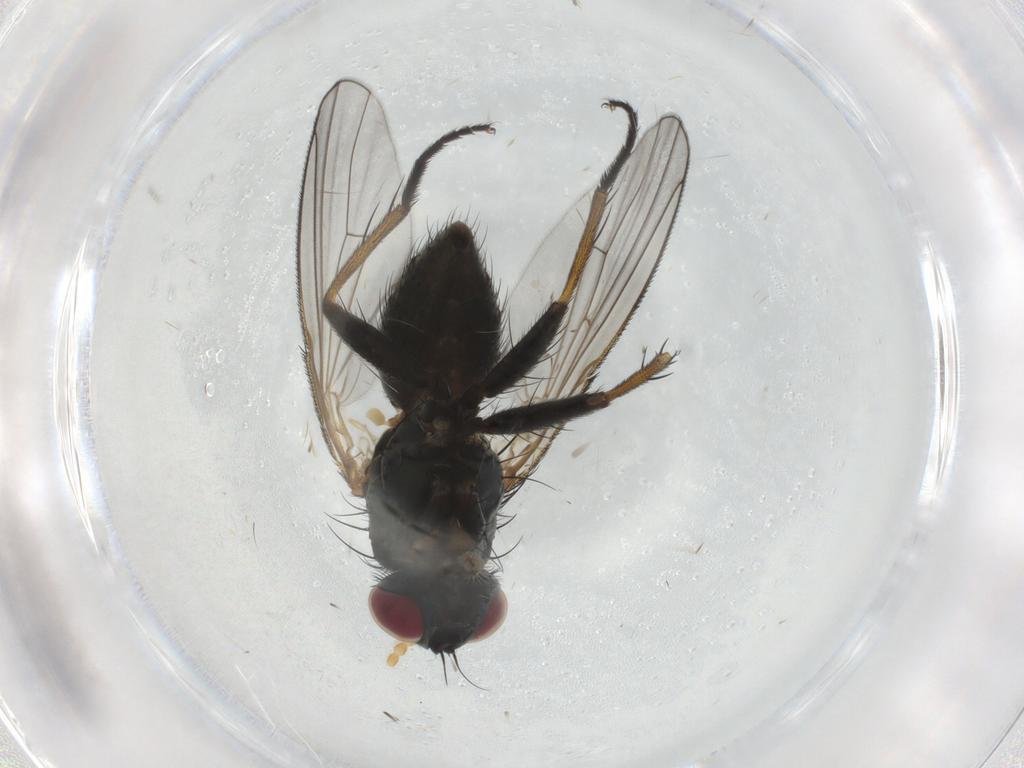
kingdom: Animalia
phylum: Arthropoda
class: Insecta
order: Diptera
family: Muscidae
